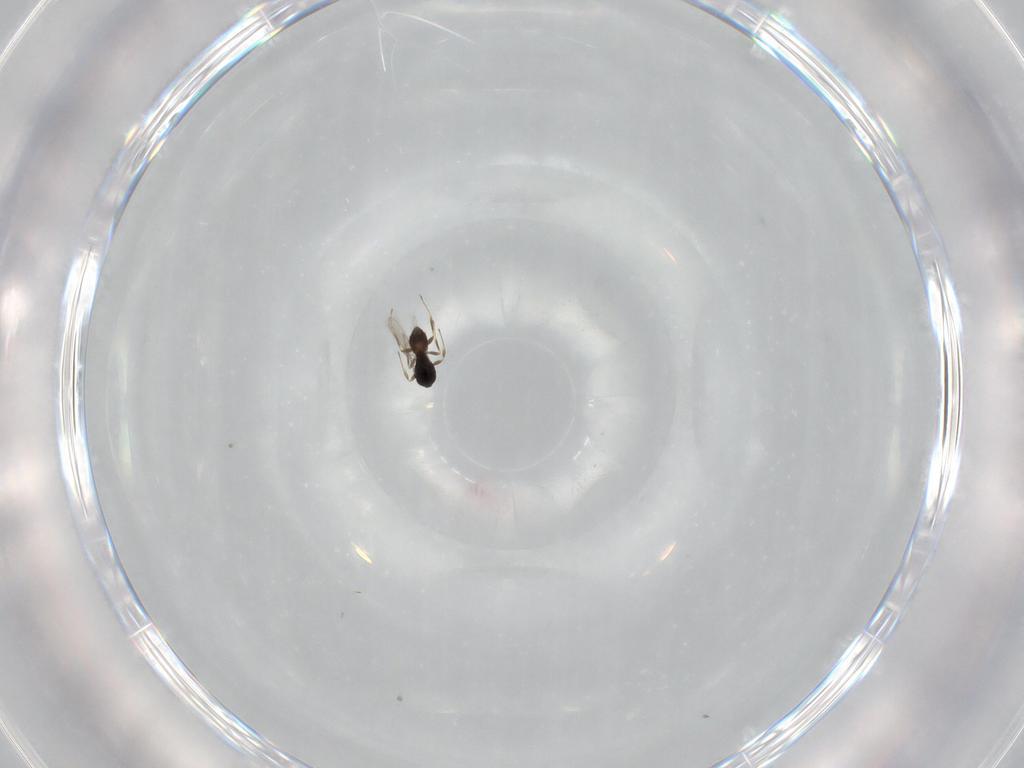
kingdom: Animalia
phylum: Arthropoda
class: Insecta
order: Hymenoptera
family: Scelionidae
